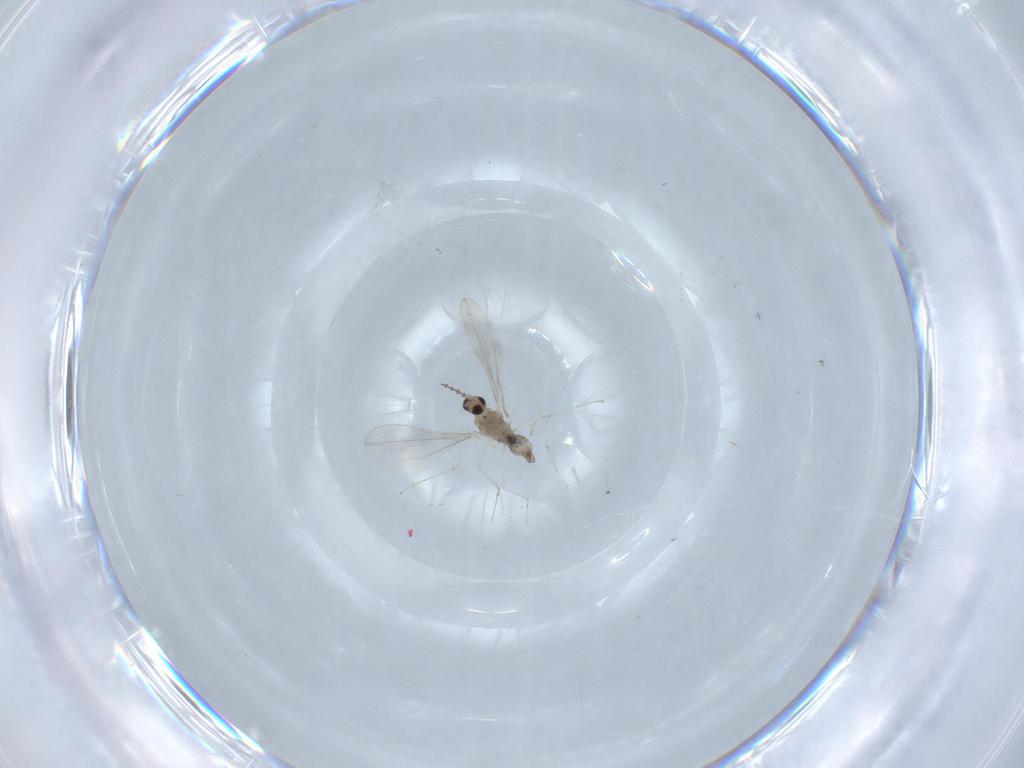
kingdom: Animalia
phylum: Arthropoda
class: Insecta
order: Diptera
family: Cecidomyiidae
